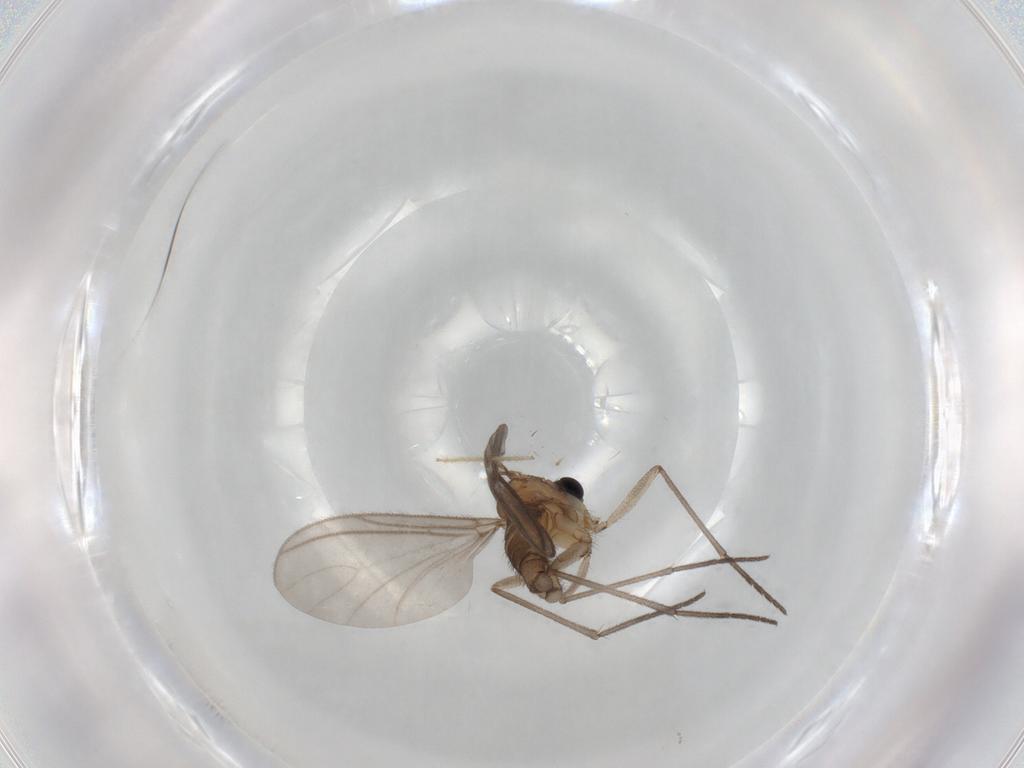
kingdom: Animalia
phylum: Arthropoda
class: Insecta
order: Diptera
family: Sciaridae
